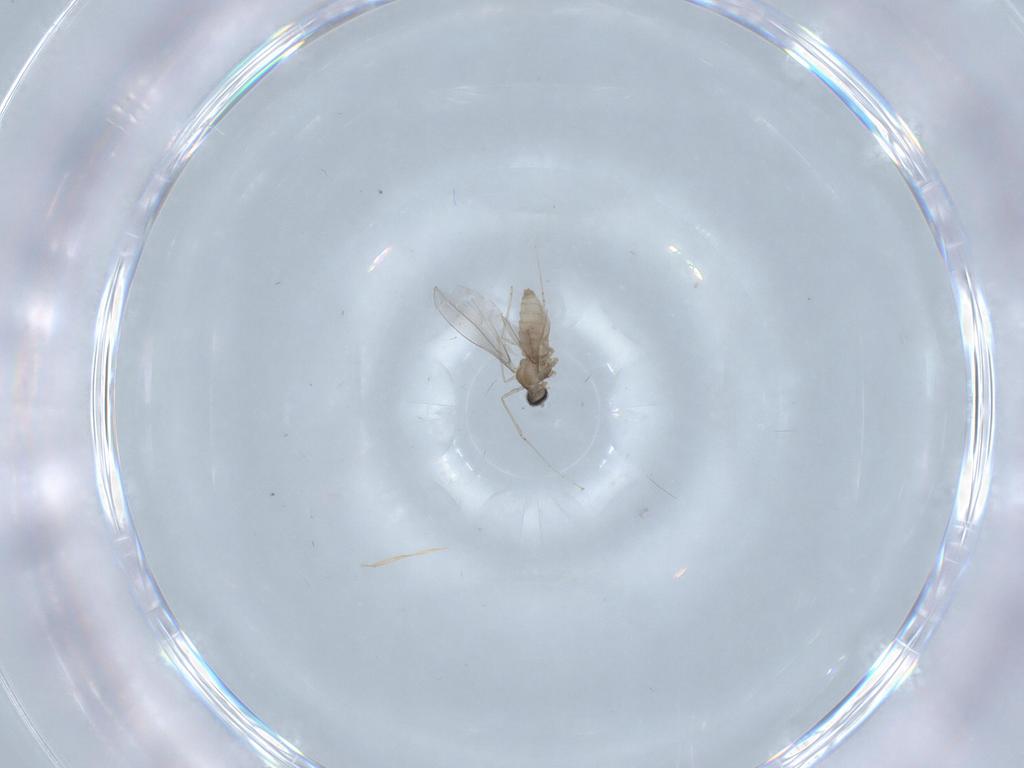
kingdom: Animalia
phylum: Arthropoda
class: Insecta
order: Diptera
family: Cecidomyiidae
